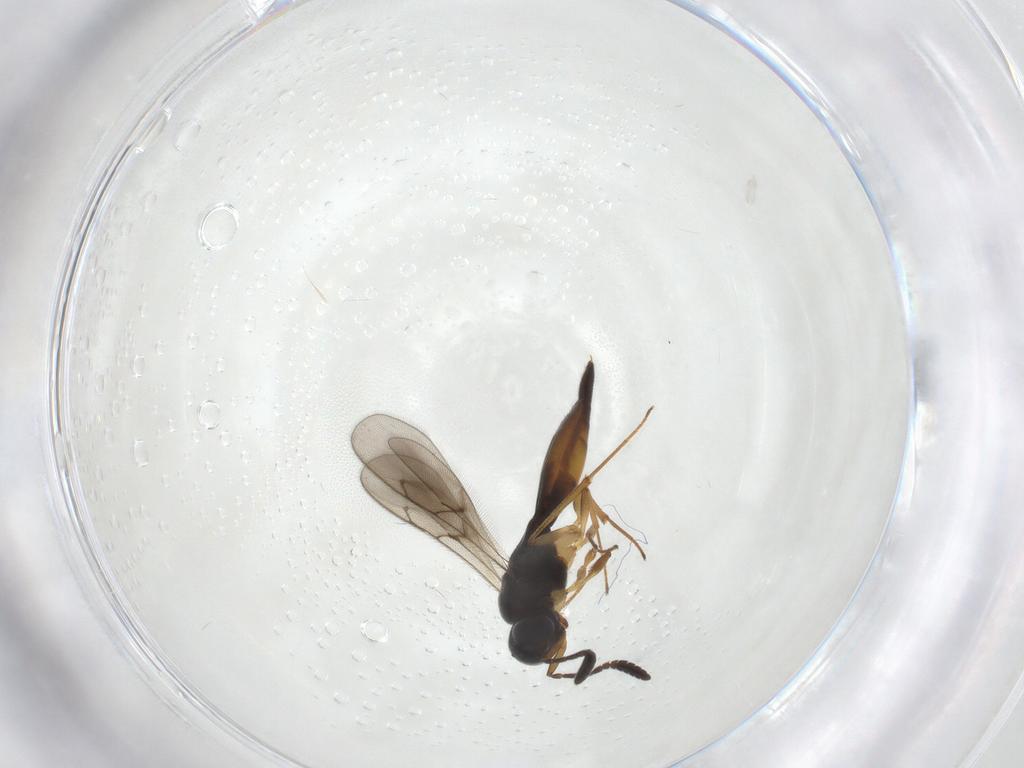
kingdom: Animalia
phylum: Arthropoda
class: Insecta
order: Hymenoptera
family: Scelionidae
